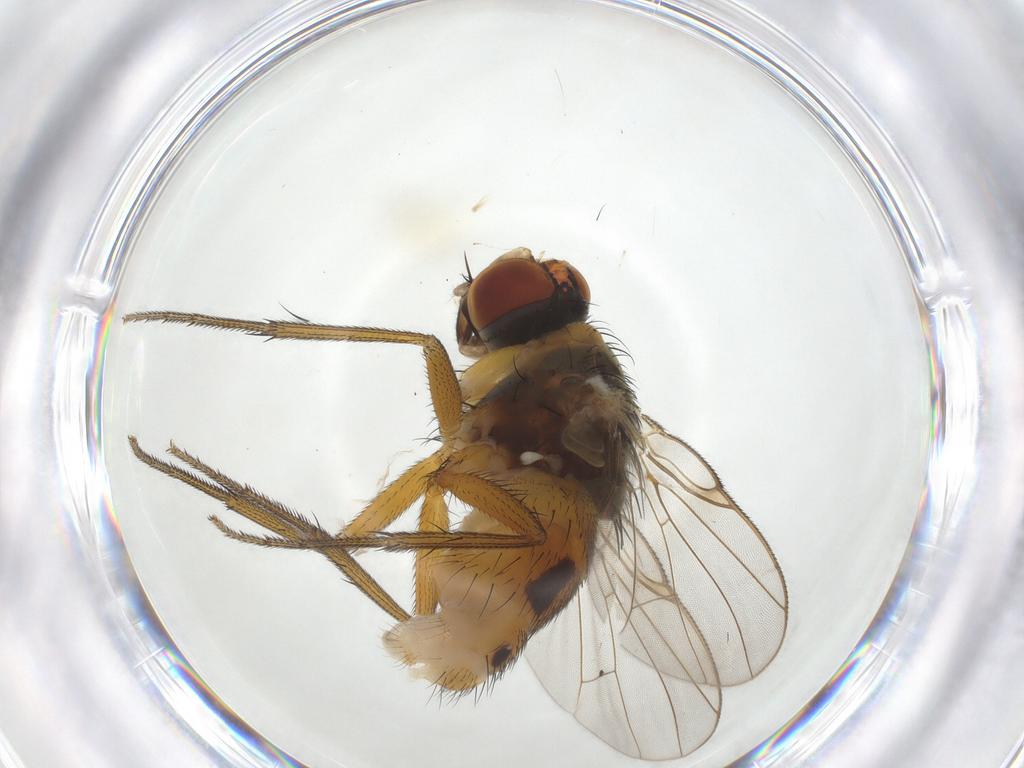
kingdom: Animalia
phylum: Arthropoda
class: Insecta
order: Diptera
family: Muscidae
